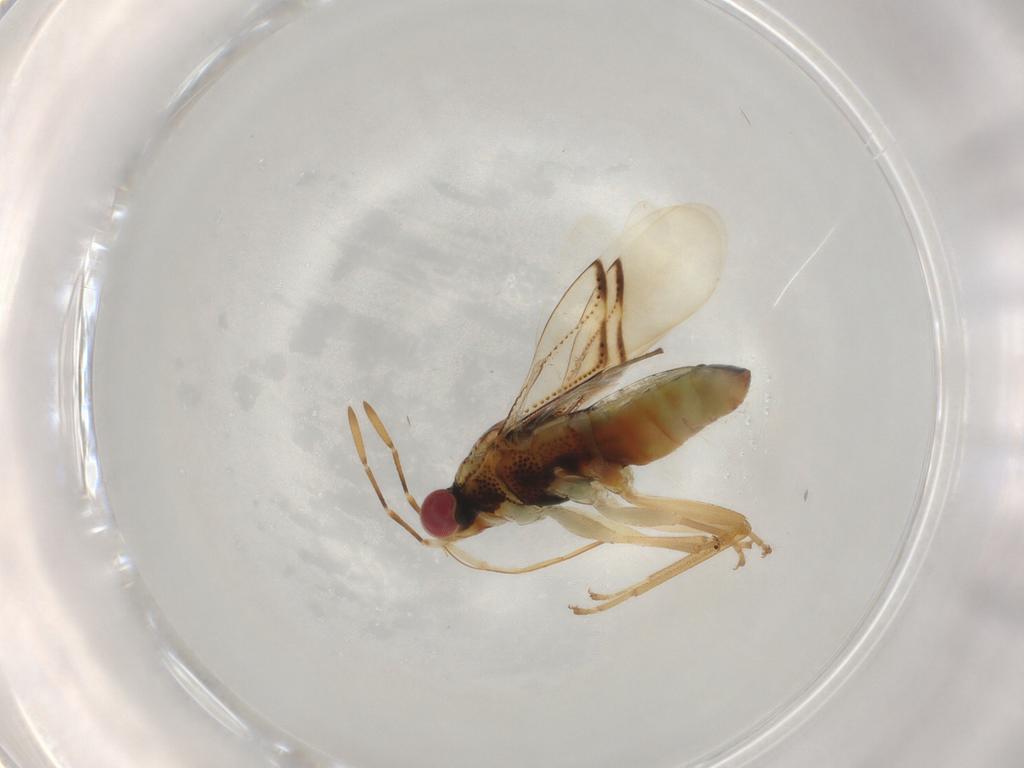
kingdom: Animalia
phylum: Arthropoda
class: Insecta
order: Hemiptera
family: Geocoridae
